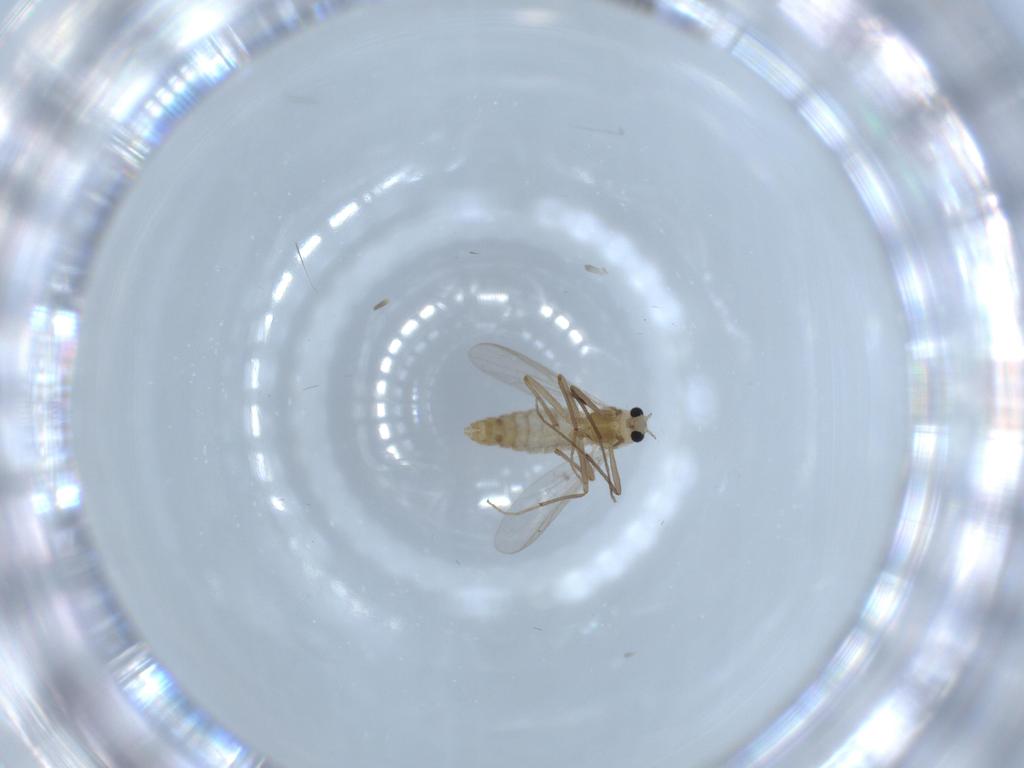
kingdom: Animalia
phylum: Arthropoda
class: Insecta
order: Diptera
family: Chironomidae
